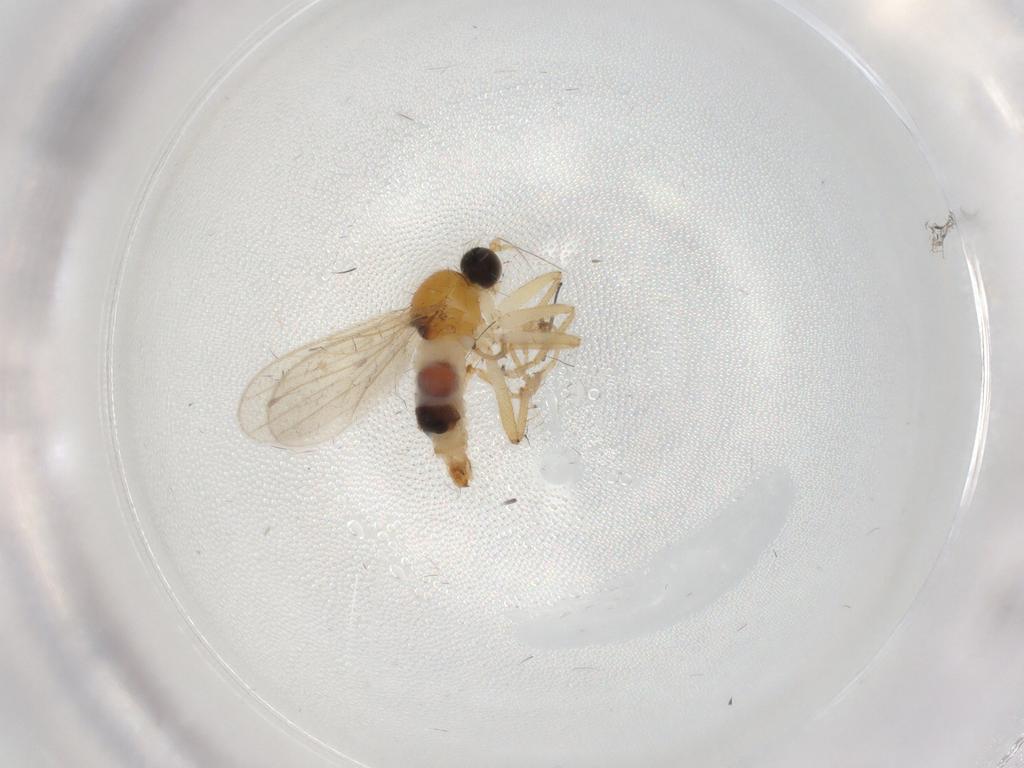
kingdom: Animalia
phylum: Arthropoda
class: Insecta
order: Diptera
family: Hybotidae
